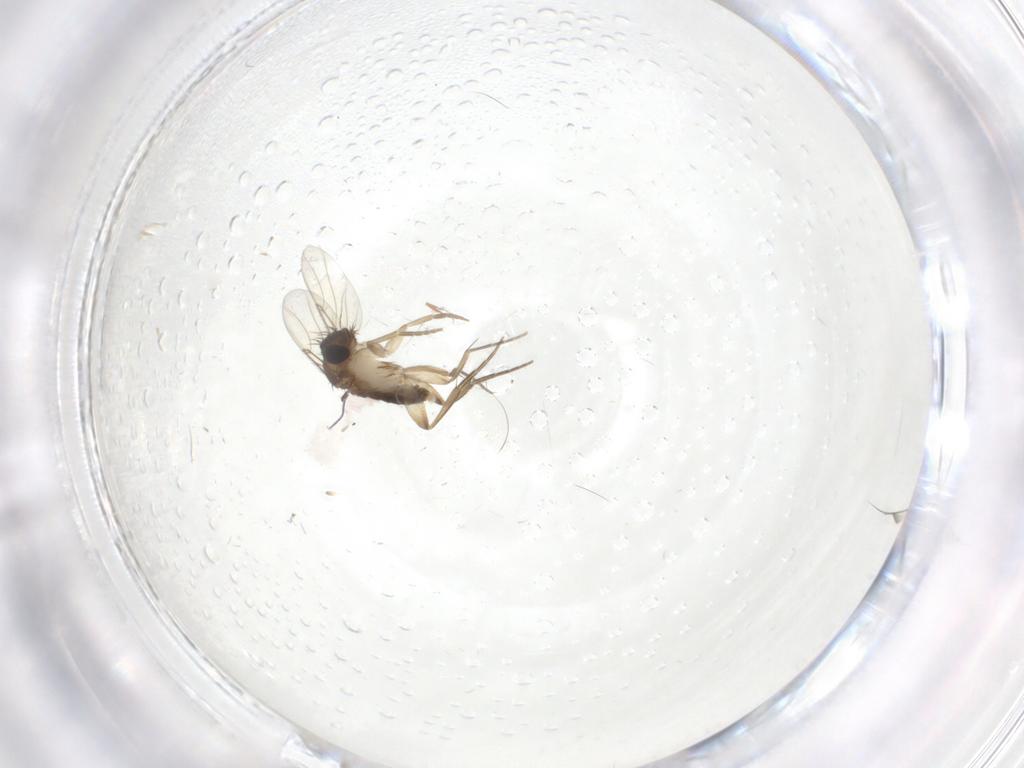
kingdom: Animalia
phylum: Arthropoda
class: Insecta
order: Diptera
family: Phoridae
